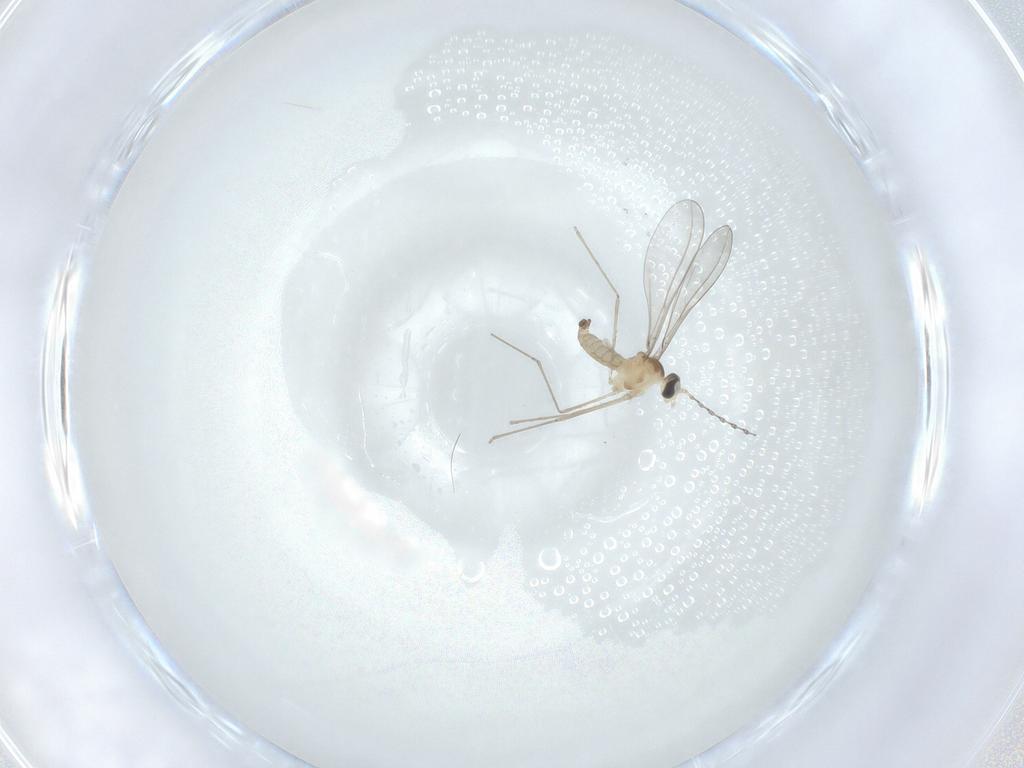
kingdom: Animalia
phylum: Arthropoda
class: Insecta
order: Diptera
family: Cecidomyiidae
